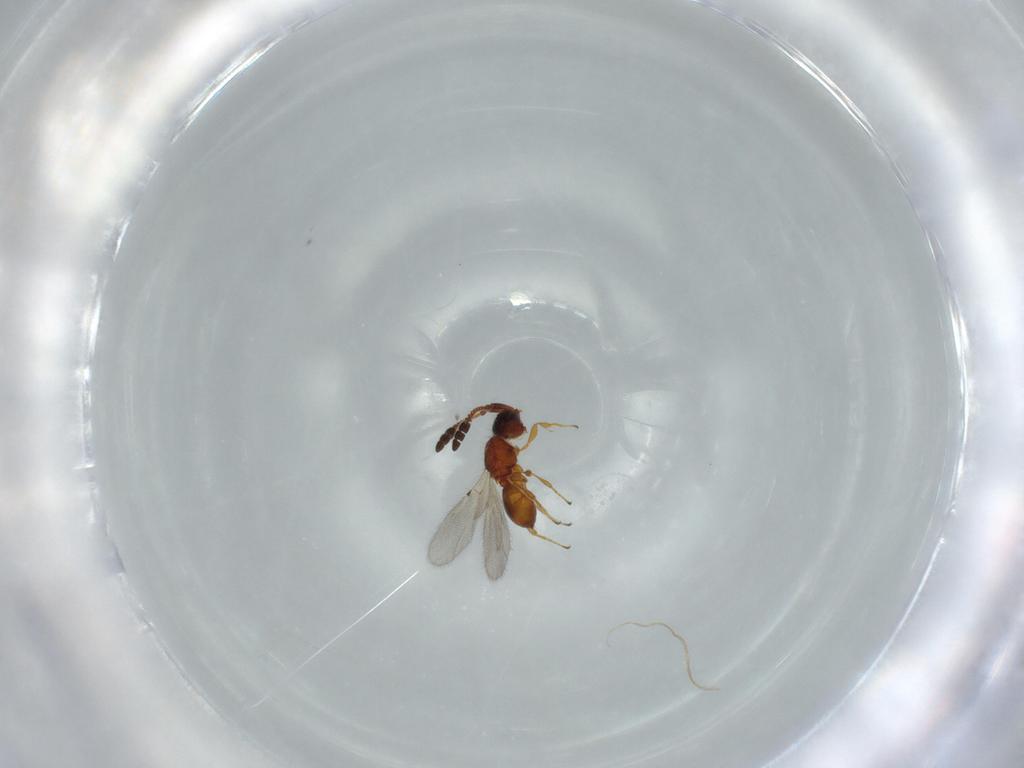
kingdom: Animalia
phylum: Arthropoda
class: Insecta
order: Hymenoptera
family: Diapriidae
